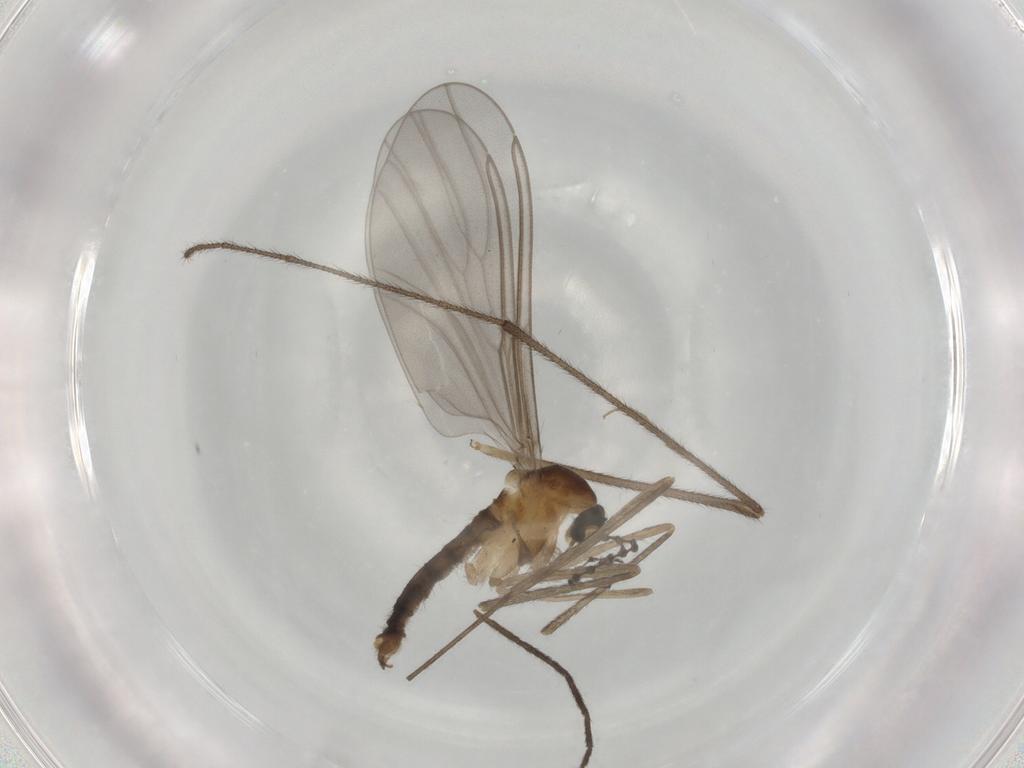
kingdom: Animalia
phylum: Arthropoda
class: Insecta
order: Diptera
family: Cecidomyiidae
